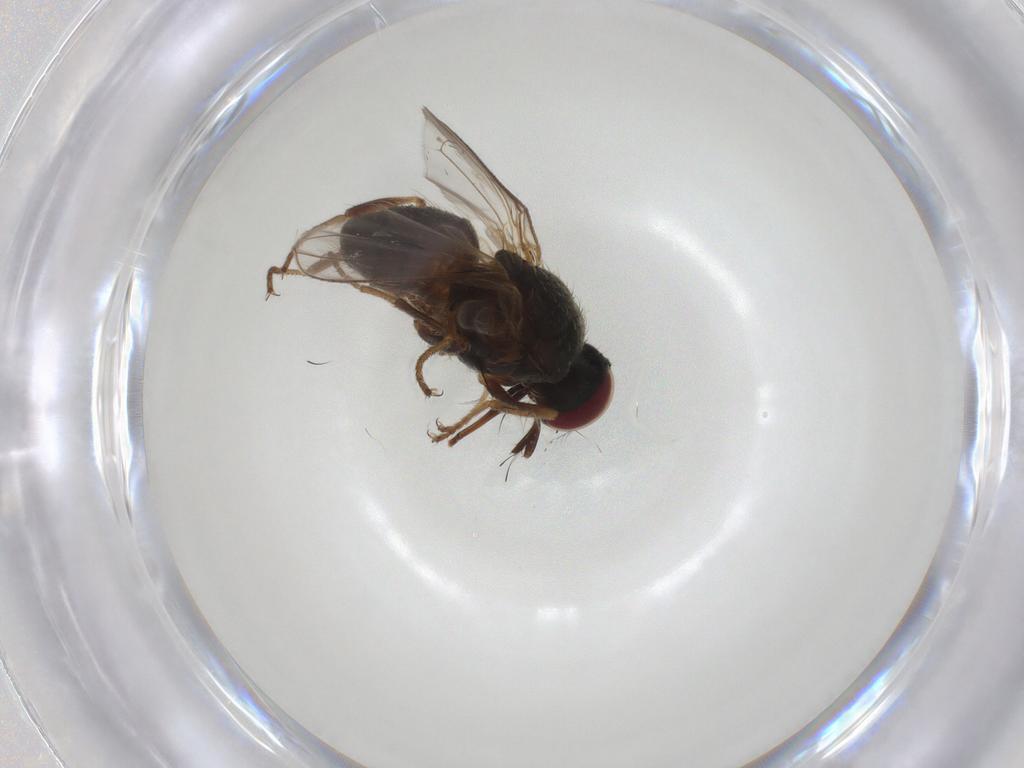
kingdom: Animalia
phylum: Arthropoda
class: Insecta
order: Diptera
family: Muscidae
